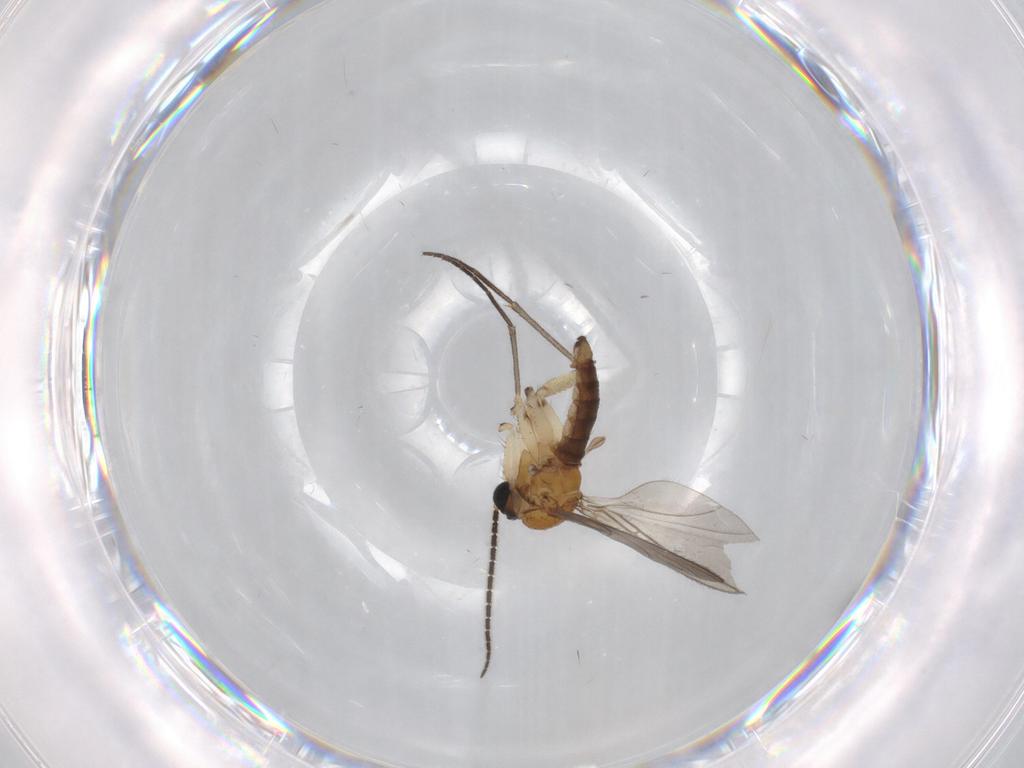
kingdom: Animalia
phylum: Arthropoda
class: Insecta
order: Diptera
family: Sciaridae
